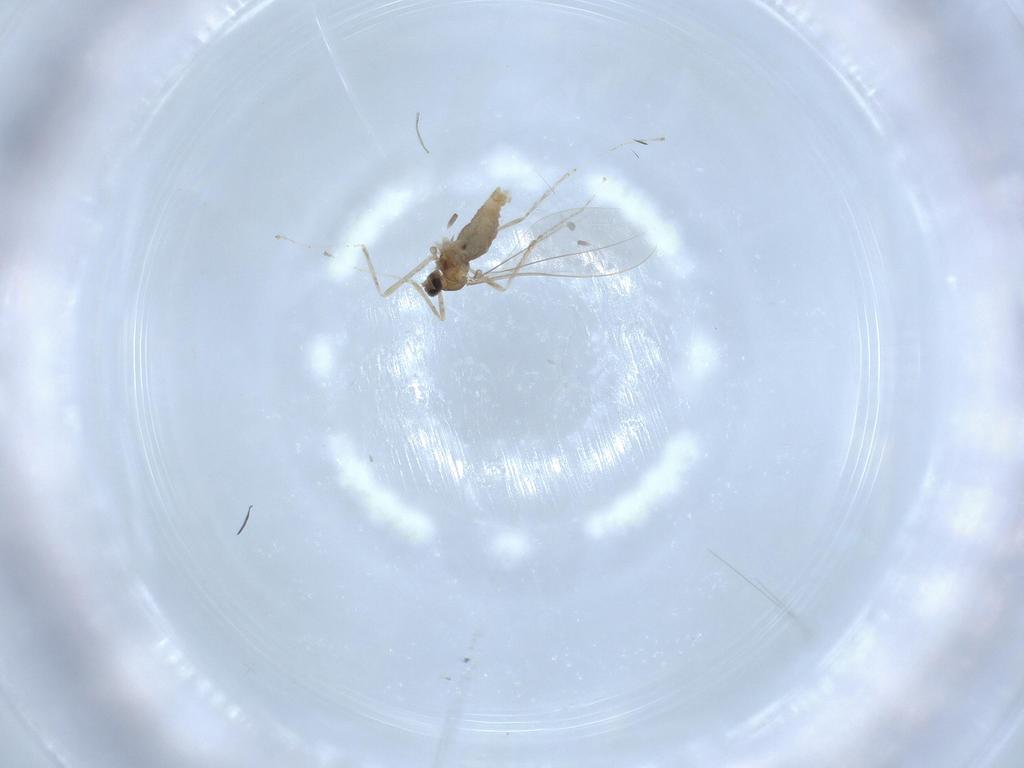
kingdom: Animalia
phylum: Arthropoda
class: Insecta
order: Diptera
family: Cecidomyiidae
